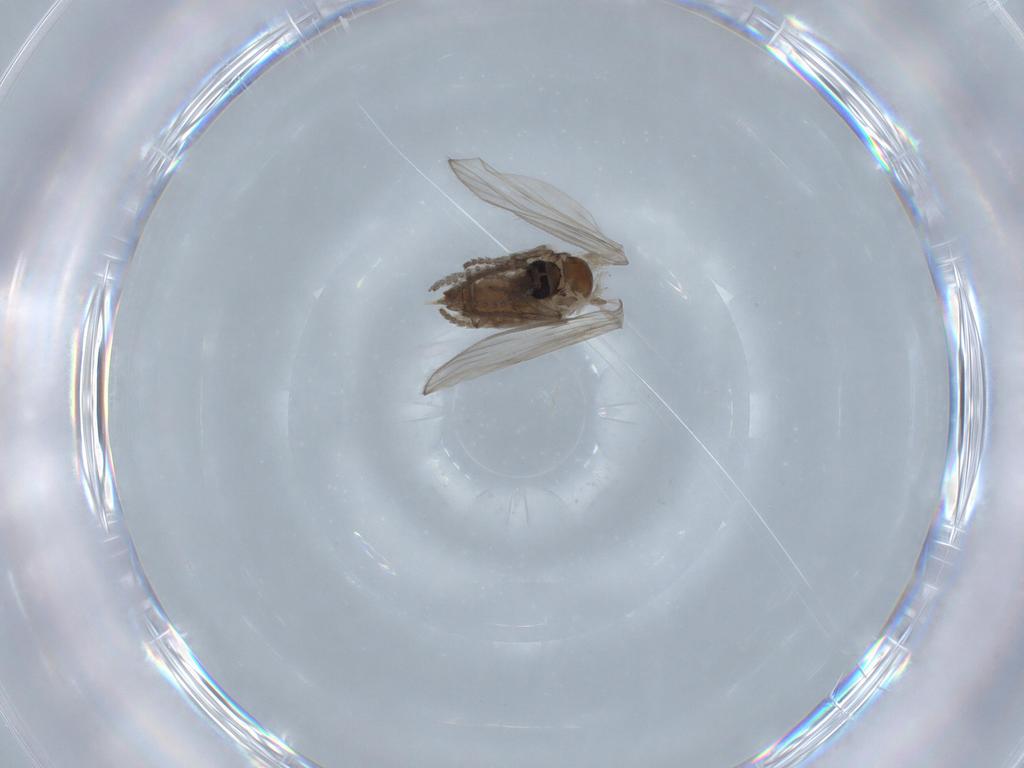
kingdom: Animalia
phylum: Arthropoda
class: Insecta
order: Diptera
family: Psychodidae
